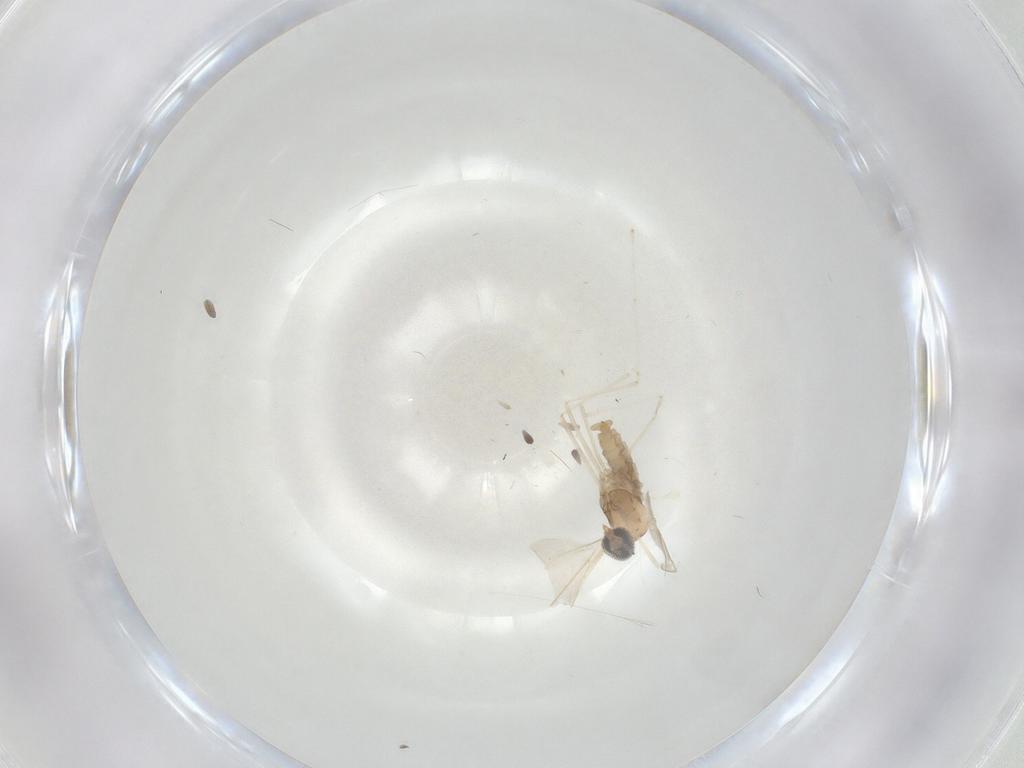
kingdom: Animalia
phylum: Arthropoda
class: Insecta
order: Diptera
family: Cecidomyiidae
